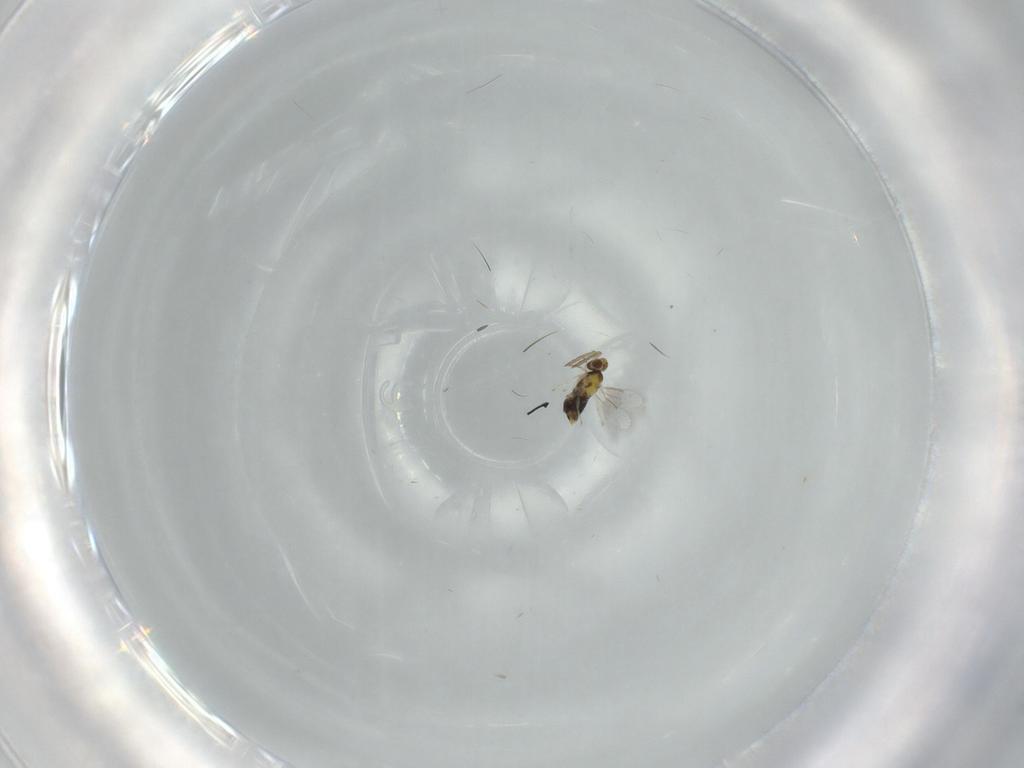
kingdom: Animalia
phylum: Arthropoda
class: Insecta
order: Hymenoptera
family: Aphelinidae
